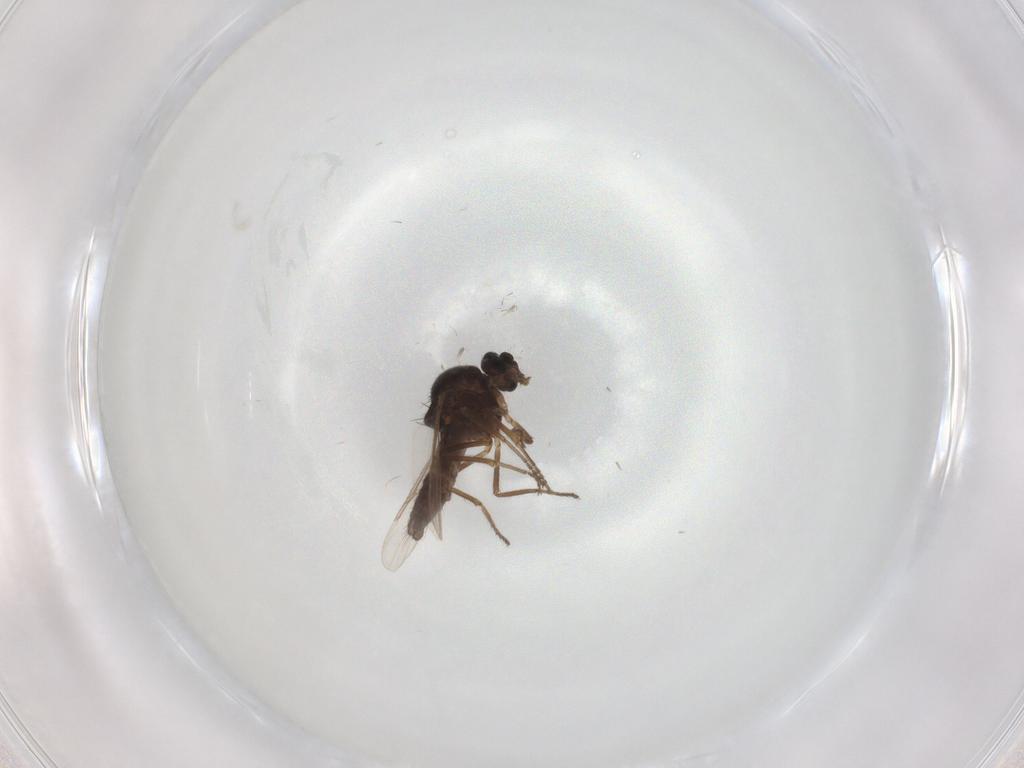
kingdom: Animalia
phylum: Arthropoda
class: Insecta
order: Diptera
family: Ceratopogonidae
